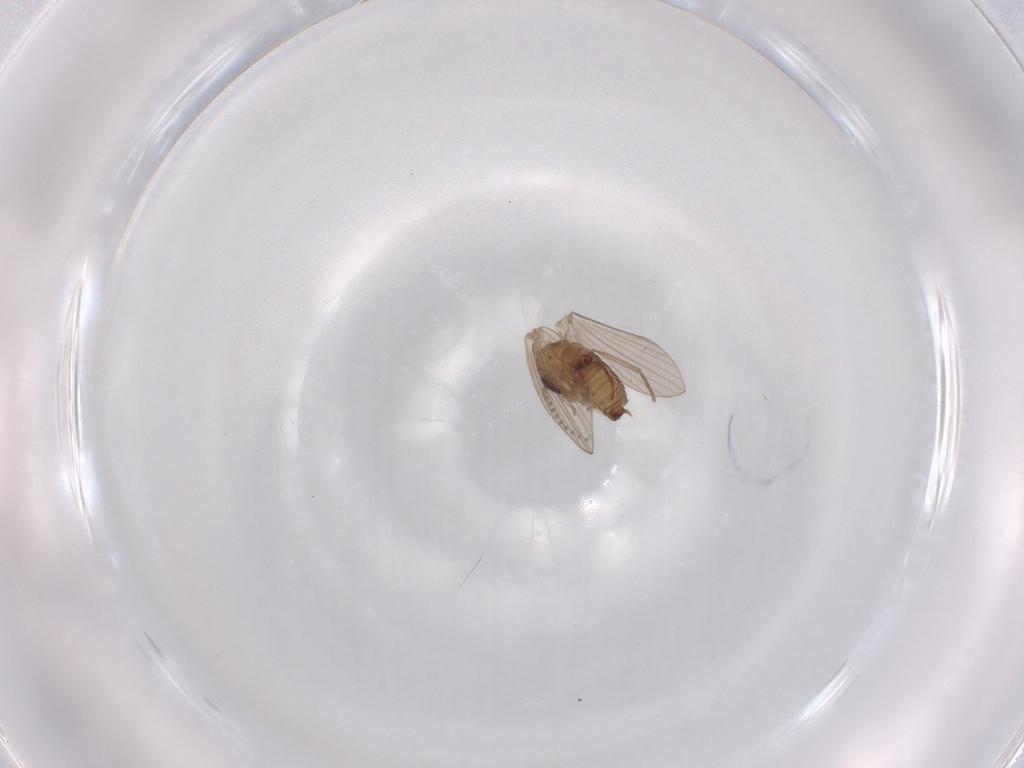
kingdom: Animalia
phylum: Arthropoda
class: Insecta
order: Diptera
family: Psychodidae
